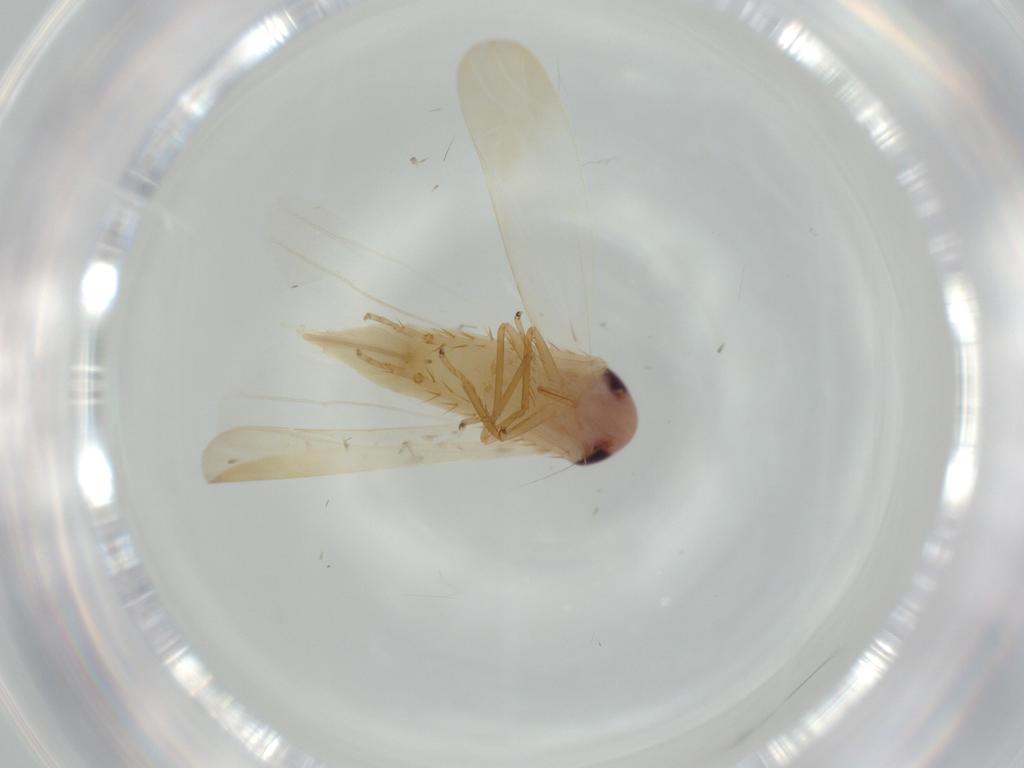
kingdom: Animalia
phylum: Arthropoda
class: Insecta
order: Hemiptera
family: Cicadellidae
